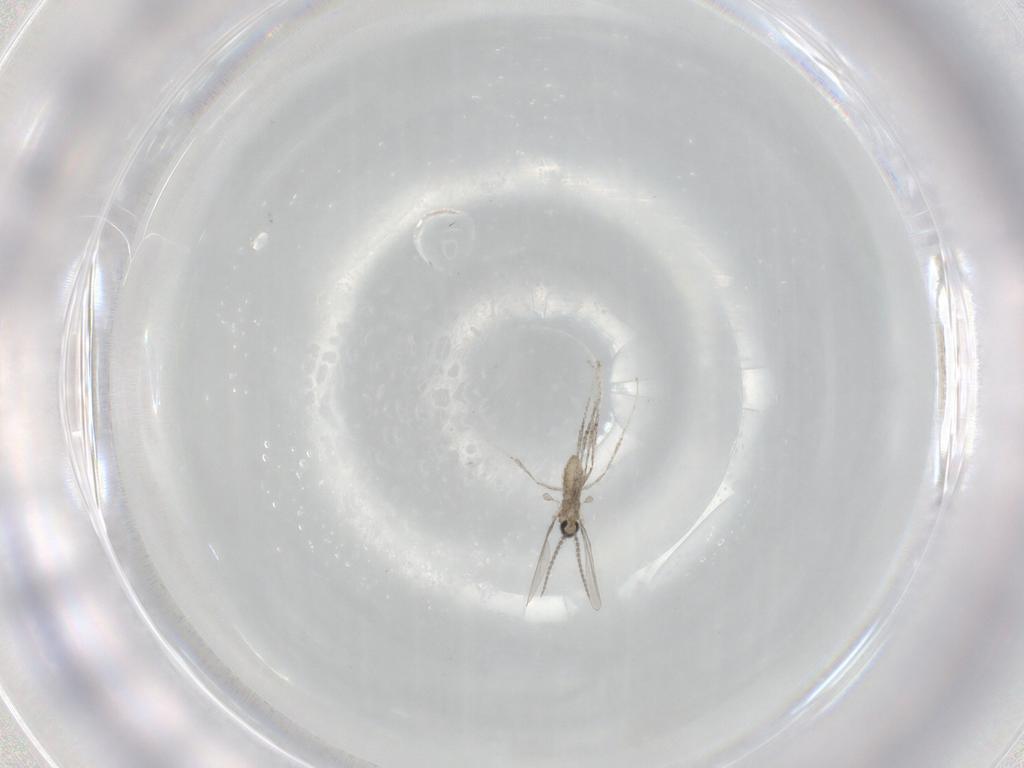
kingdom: Animalia
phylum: Arthropoda
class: Insecta
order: Diptera
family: Cecidomyiidae
